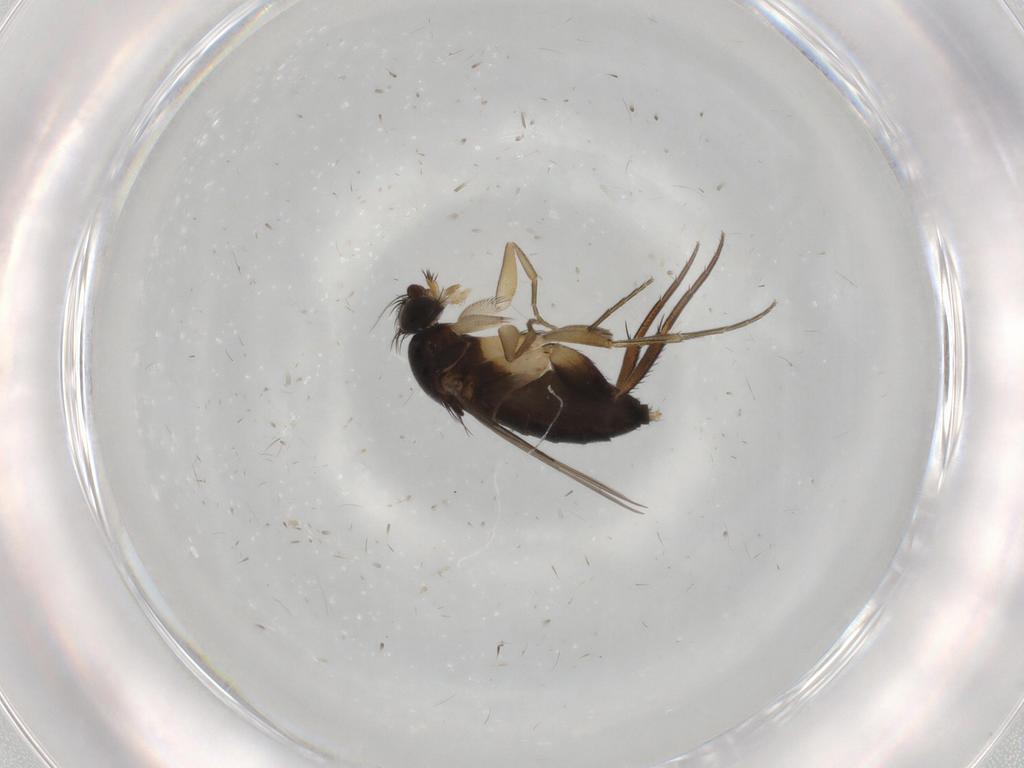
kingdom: Animalia
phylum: Arthropoda
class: Insecta
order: Diptera
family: Phoridae
